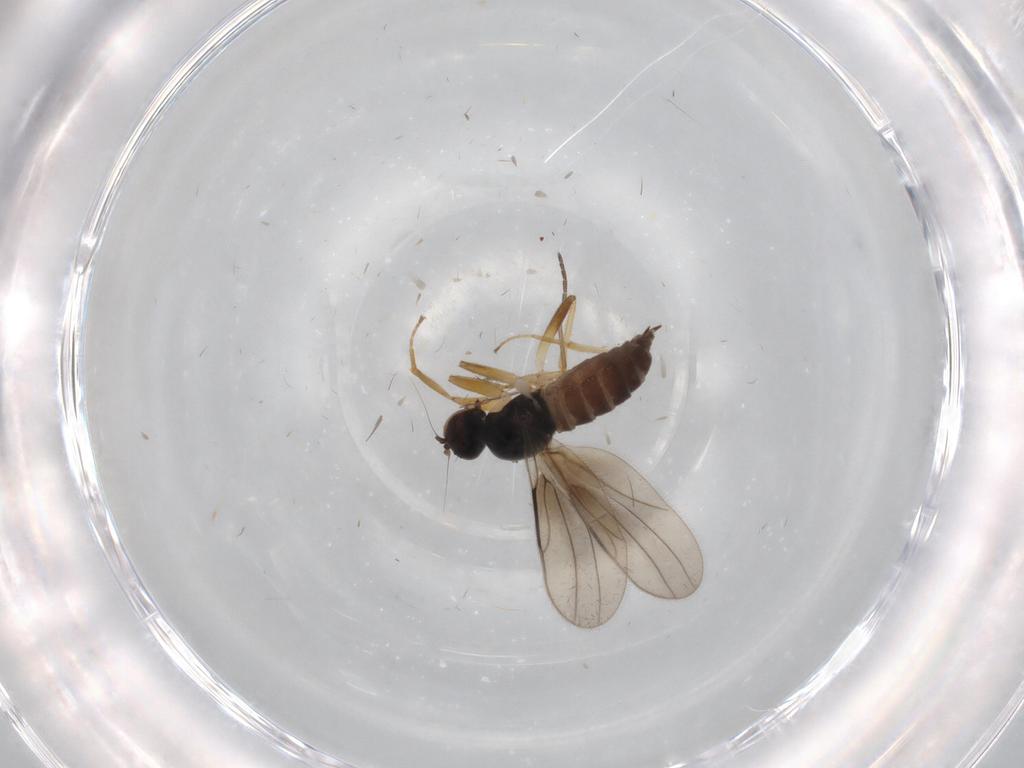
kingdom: Animalia
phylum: Arthropoda
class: Insecta
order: Diptera
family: Hybotidae
